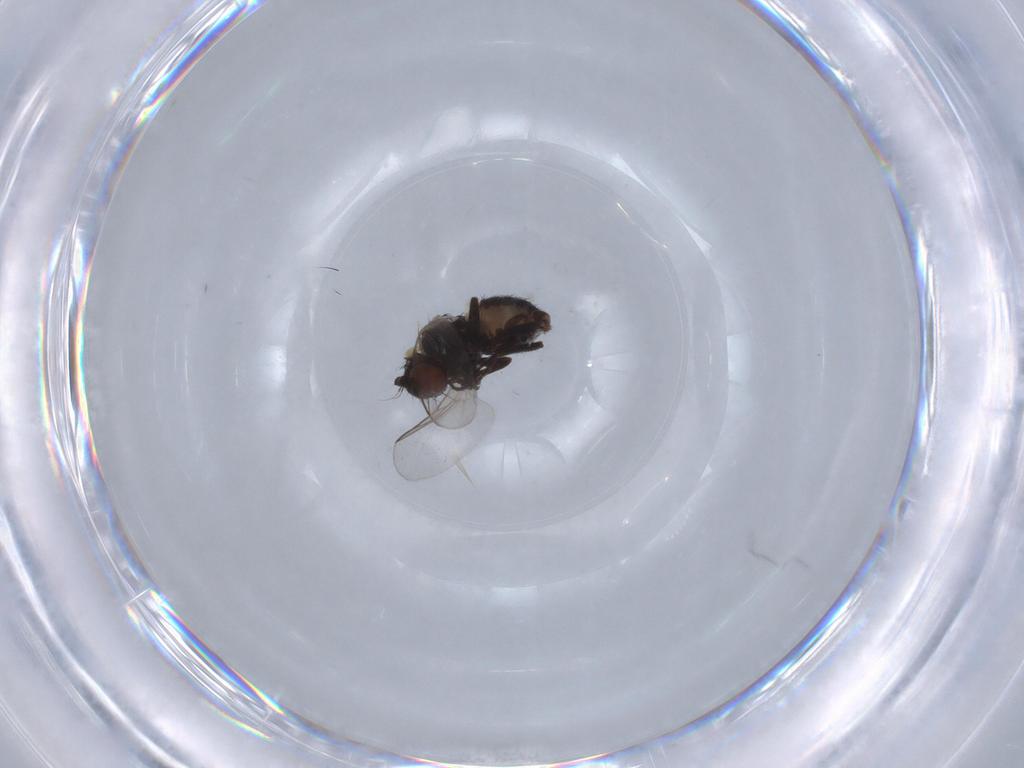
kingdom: Animalia
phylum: Arthropoda
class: Insecta
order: Diptera
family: Agromyzidae
